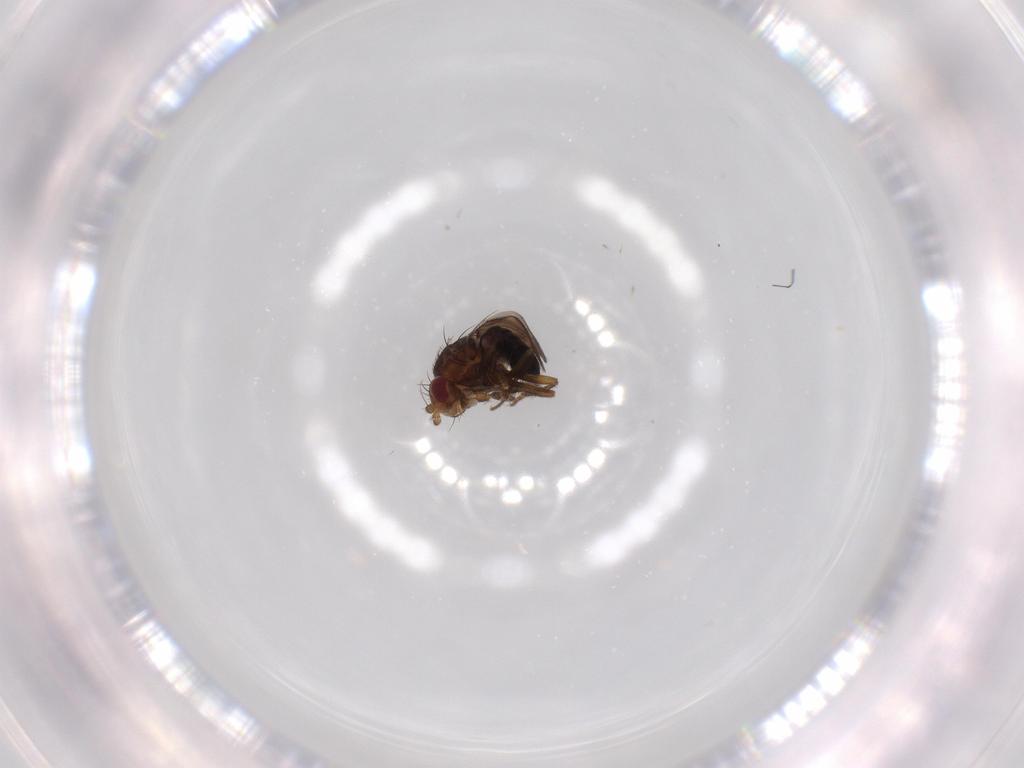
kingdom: Animalia
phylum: Arthropoda
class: Insecta
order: Diptera
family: Sphaeroceridae
